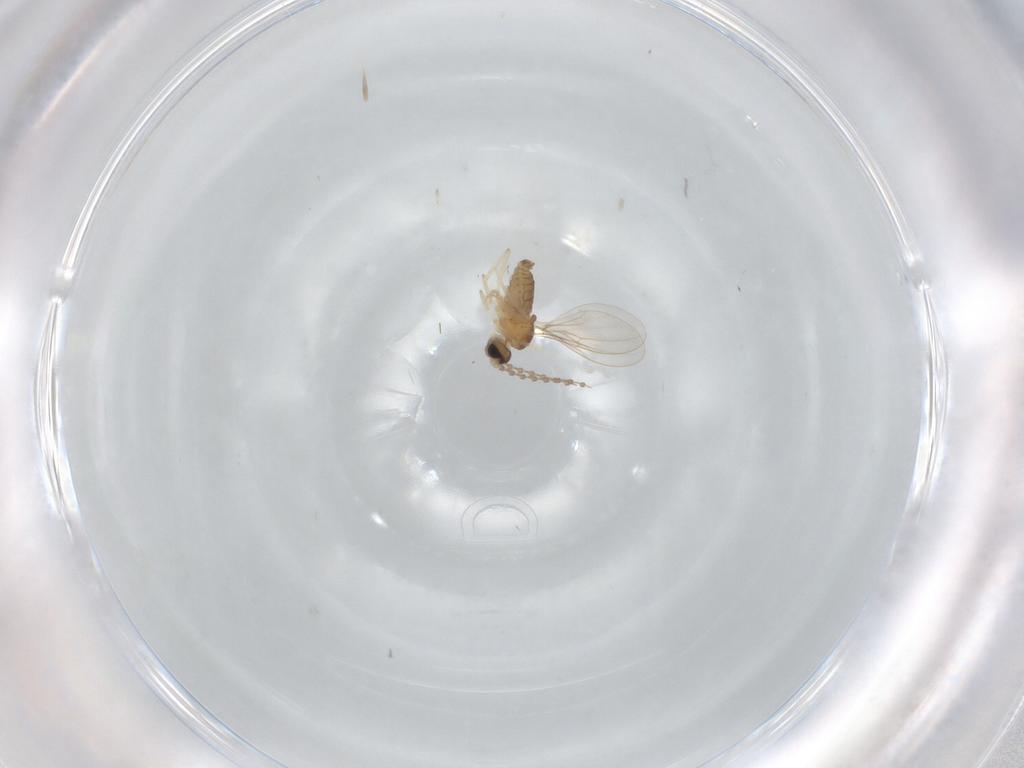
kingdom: Animalia
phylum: Arthropoda
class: Insecta
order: Diptera
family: Cecidomyiidae
